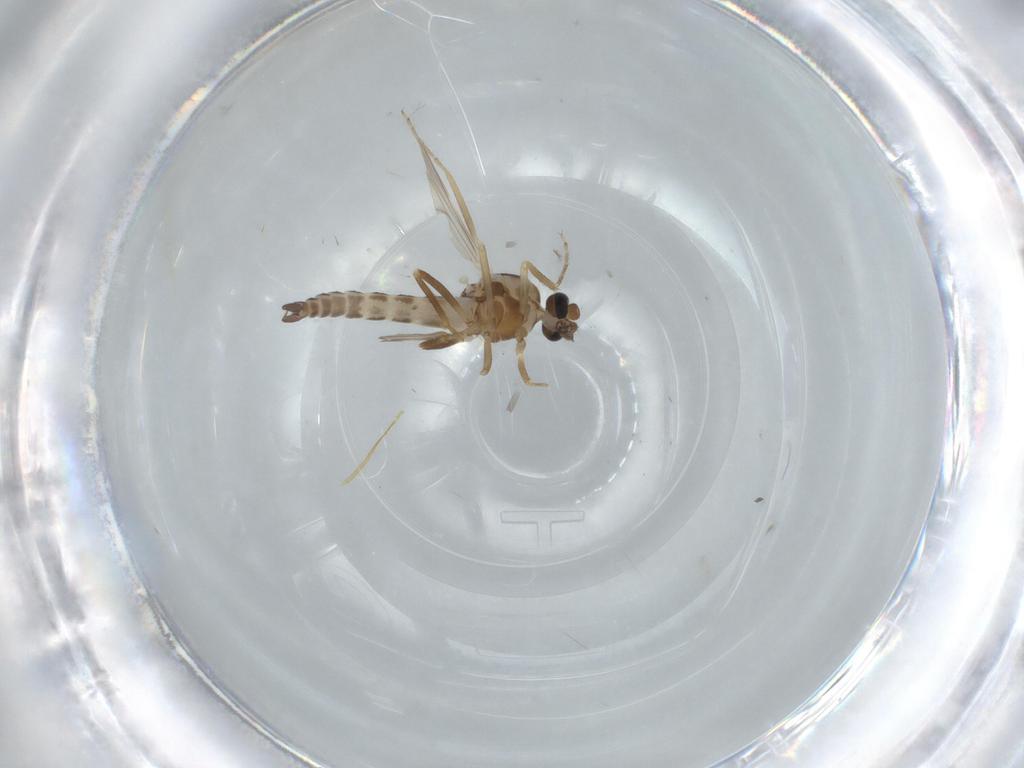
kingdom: Animalia
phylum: Arthropoda
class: Insecta
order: Diptera
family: Ceratopogonidae
